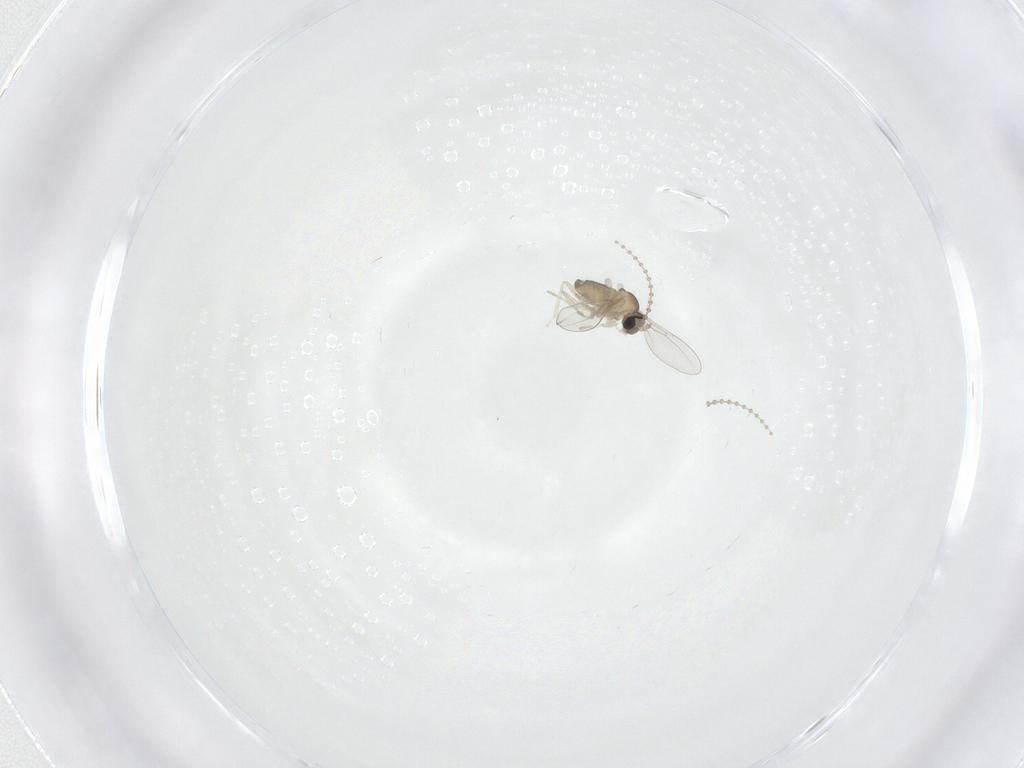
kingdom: Animalia
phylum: Arthropoda
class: Insecta
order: Diptera
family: Cecidomyiidae
